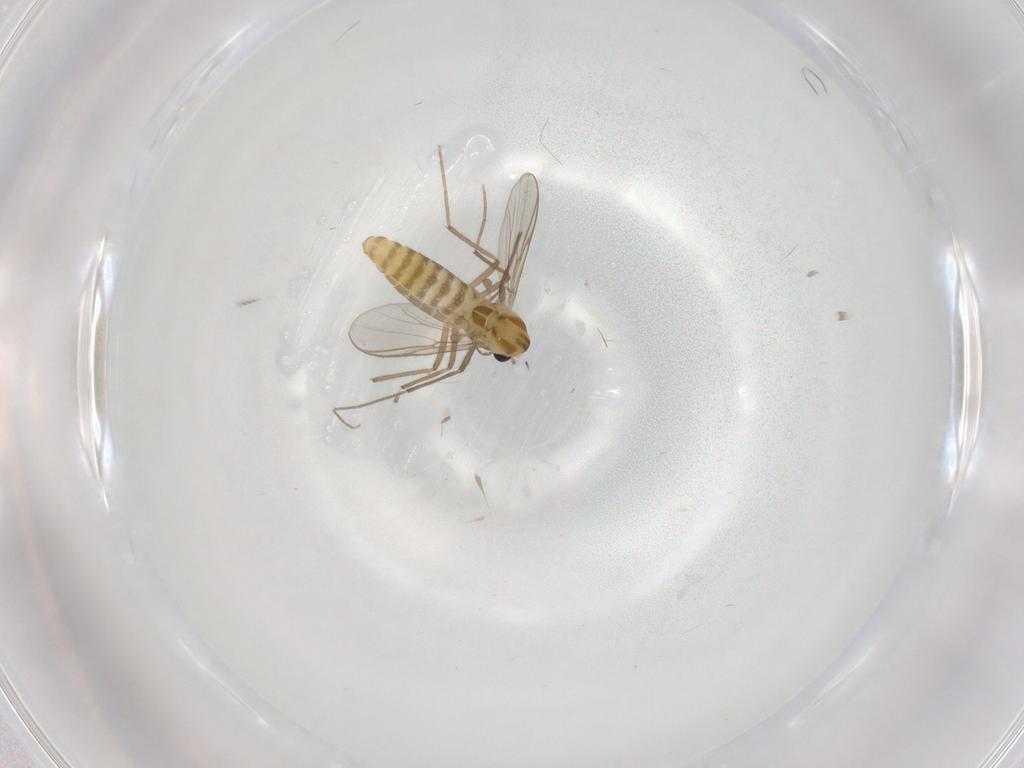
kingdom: Animalia
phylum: Arthropoda
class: Insecta
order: Diptera
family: Chironomidae
